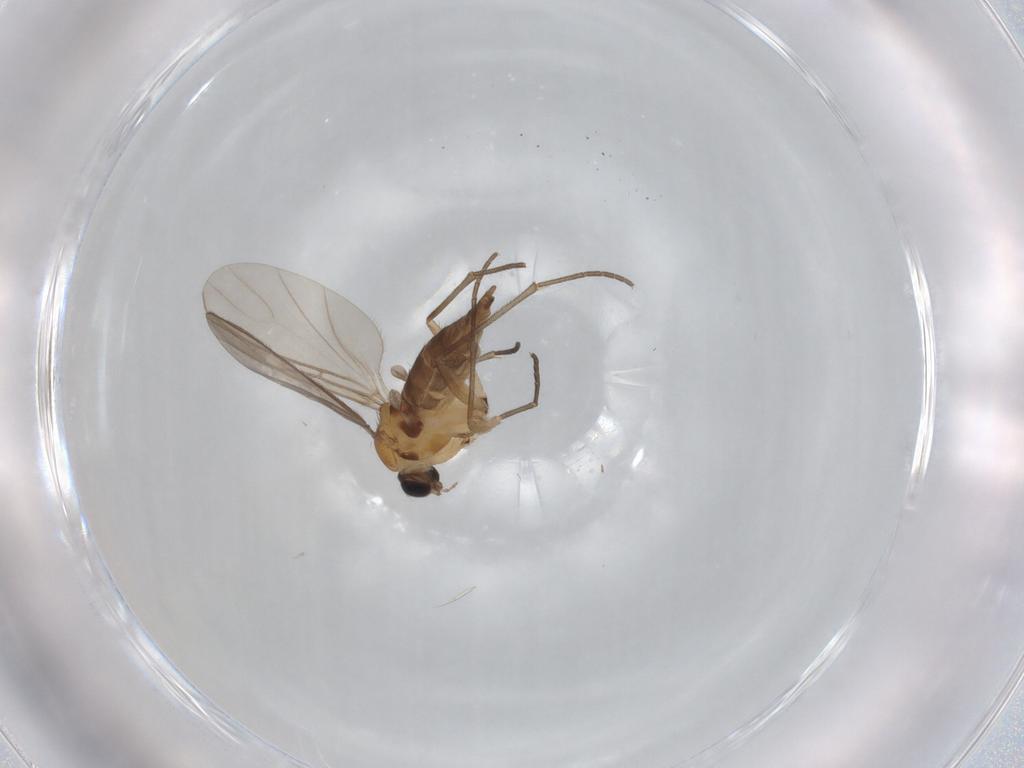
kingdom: Animalia
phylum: Arthropoda
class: Insecta
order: Diptera
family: Sciaridae
